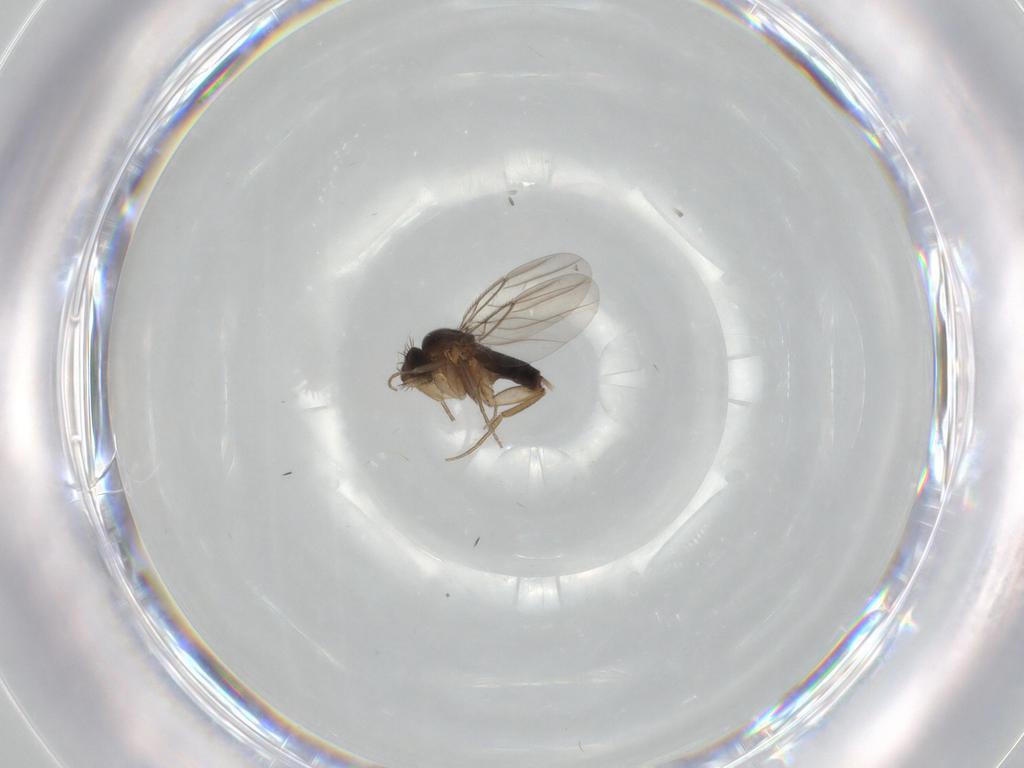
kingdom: Animalia
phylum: Arthropoda
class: Insecta
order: Diptera
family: Phoridae
